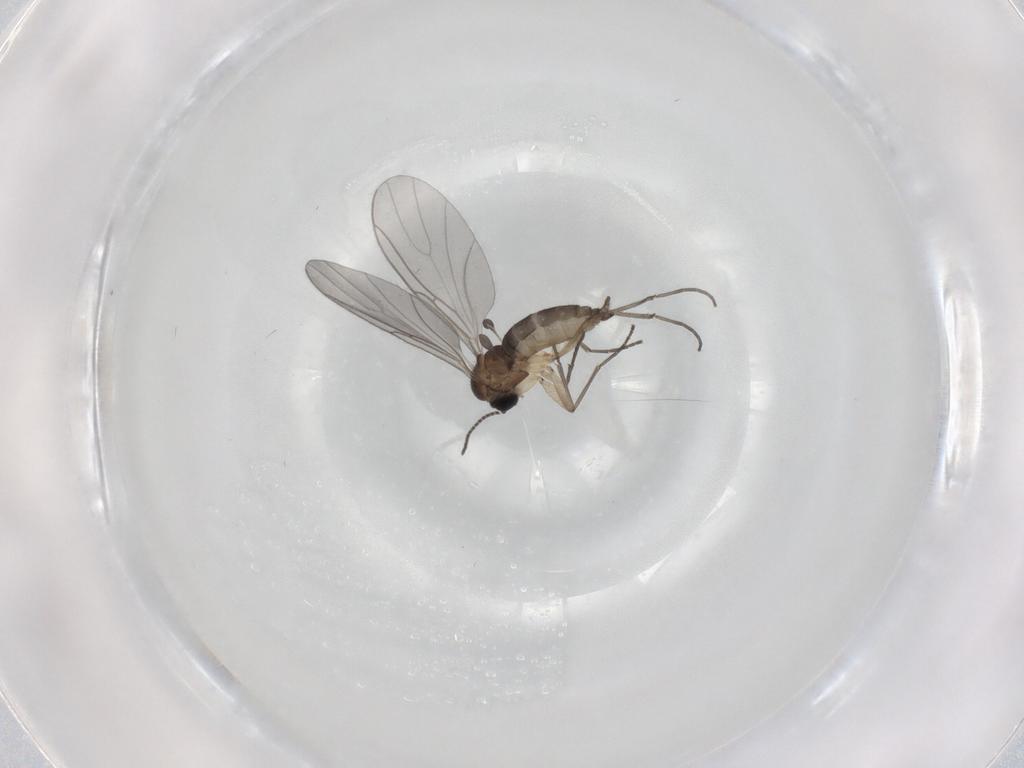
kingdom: Animalia
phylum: Arthropoda
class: Insecta
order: Diptera
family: Sciaridae
